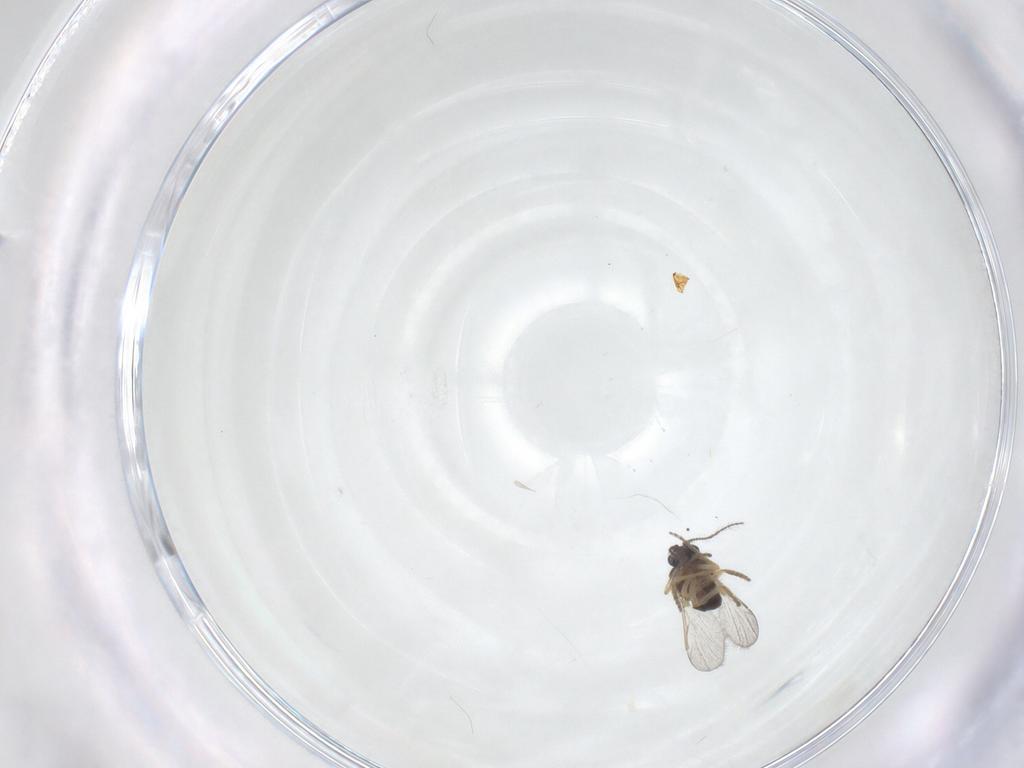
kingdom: Animalia
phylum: Arthropoda
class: Insecta
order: Diptera
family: Ceratopogonidae
